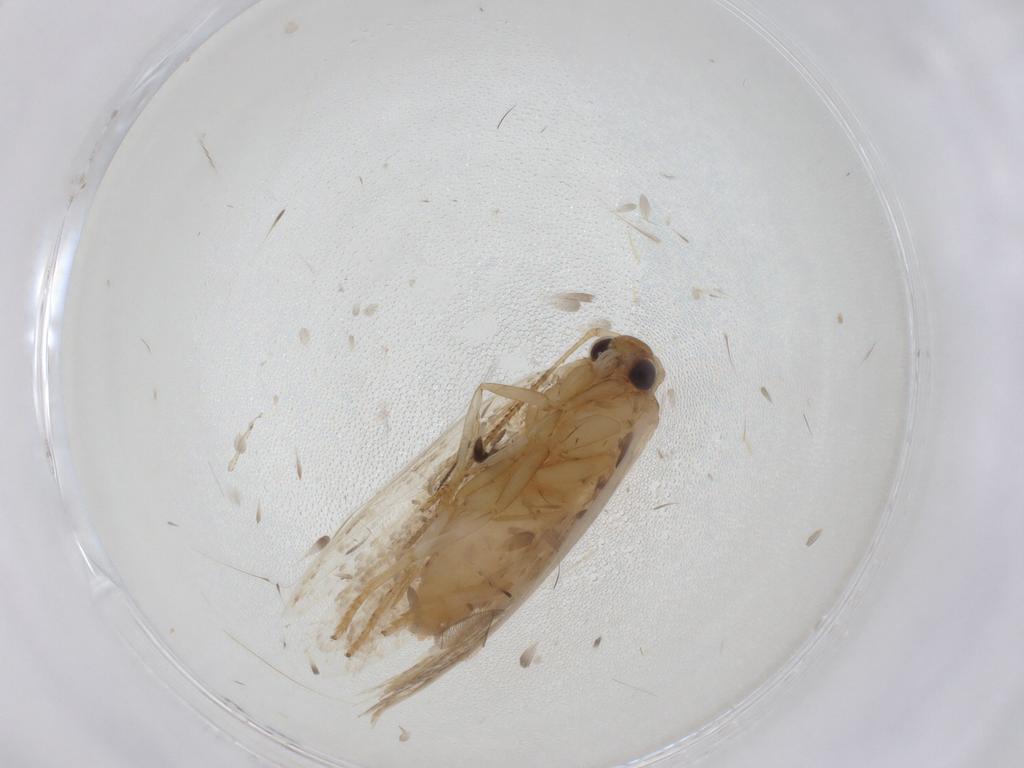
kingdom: Animalia
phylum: Arthropoda
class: Insecta
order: Lepidoptera
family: Oecophoridae
